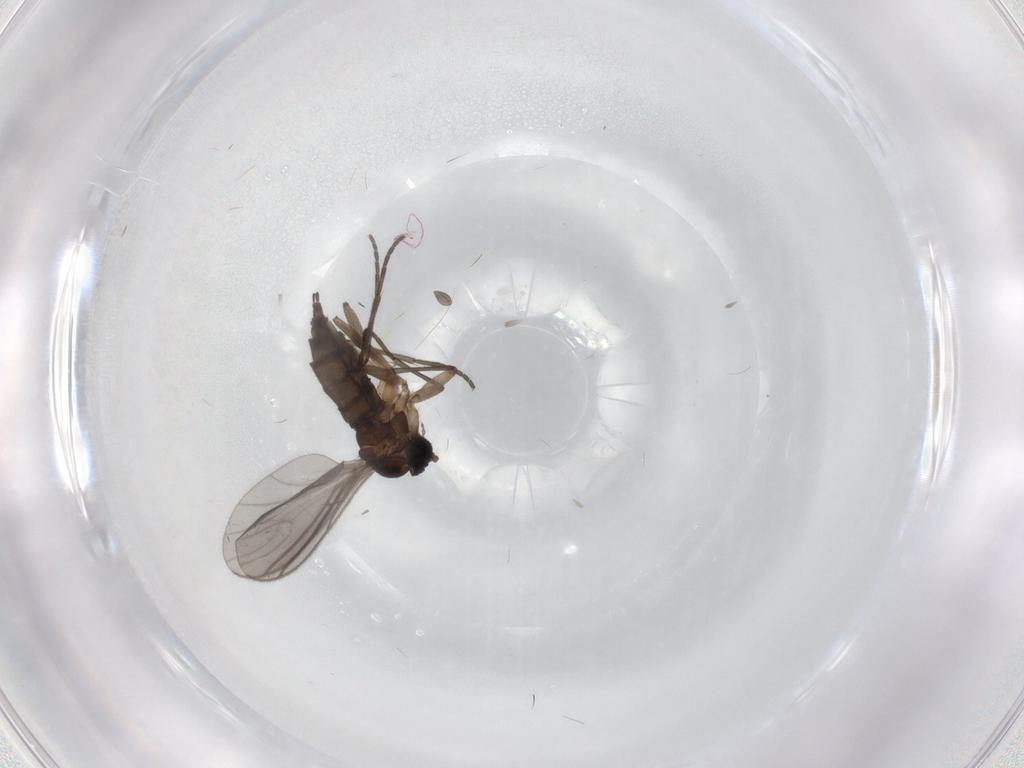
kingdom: Animalia
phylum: Arthropoda
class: Insecta
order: Diptera
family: Sciaridae
